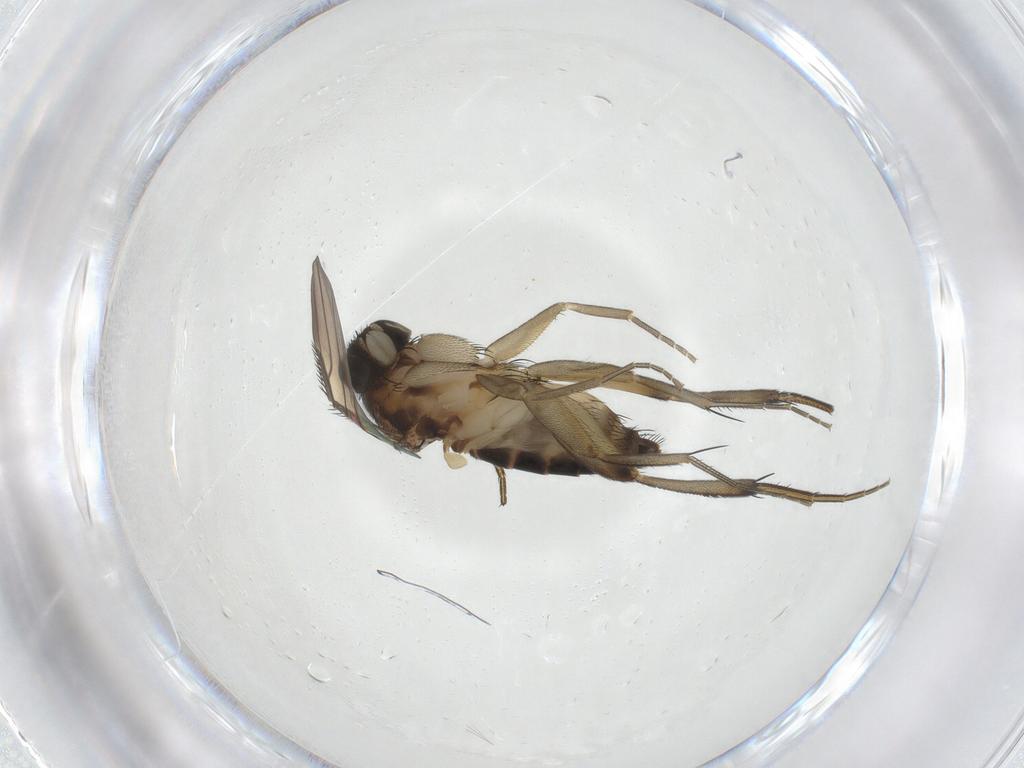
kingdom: Animalia
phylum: Arthropoda
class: Insecta
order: Diptera
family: Phoridae
